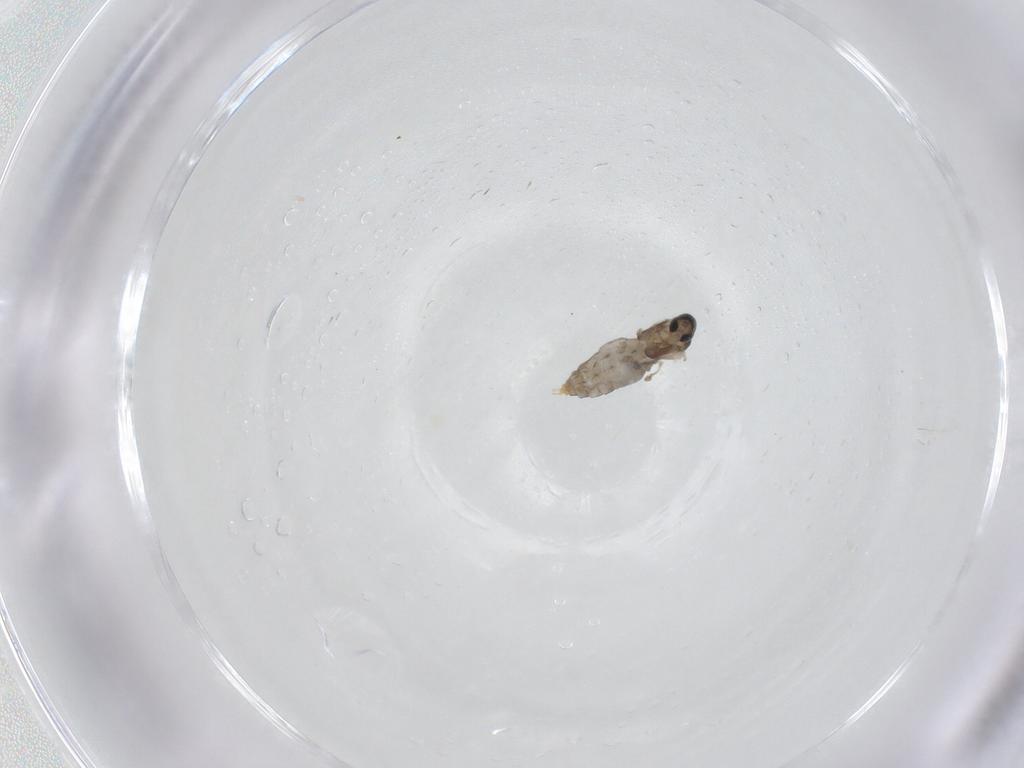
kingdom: Animalia
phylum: Arthropoda
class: Insecta
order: Diptera
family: Cecidomyiidae
